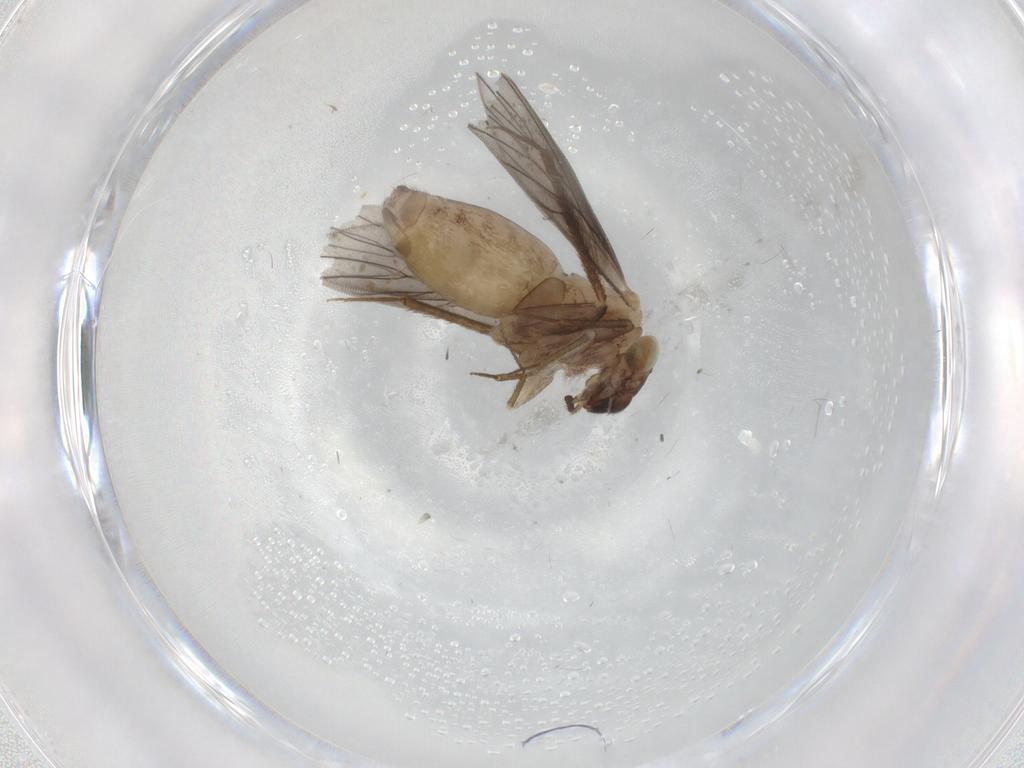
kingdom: Animalia
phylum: Arthropoda
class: Insecta
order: Psocodea
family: Lepidopsocidae
